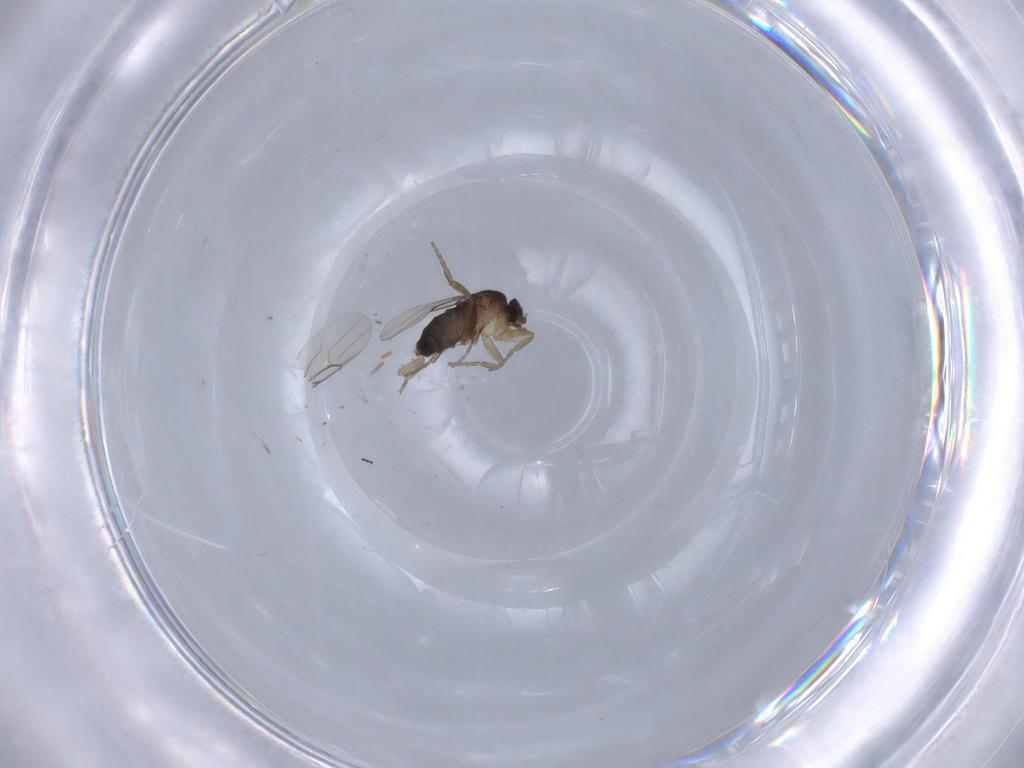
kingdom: Animalia
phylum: Arthropoda
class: Insecta
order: Diptera
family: Phoridae
